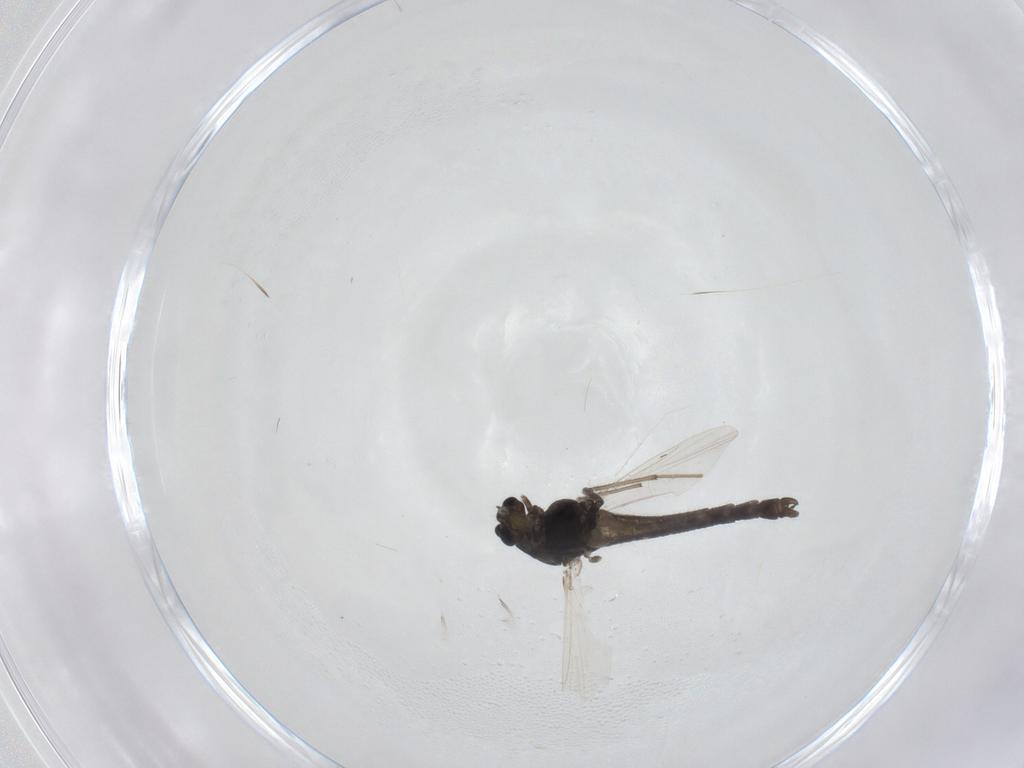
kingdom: Animalia
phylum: Arthropoda
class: Insecta
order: Diptera
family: Chironomidae
